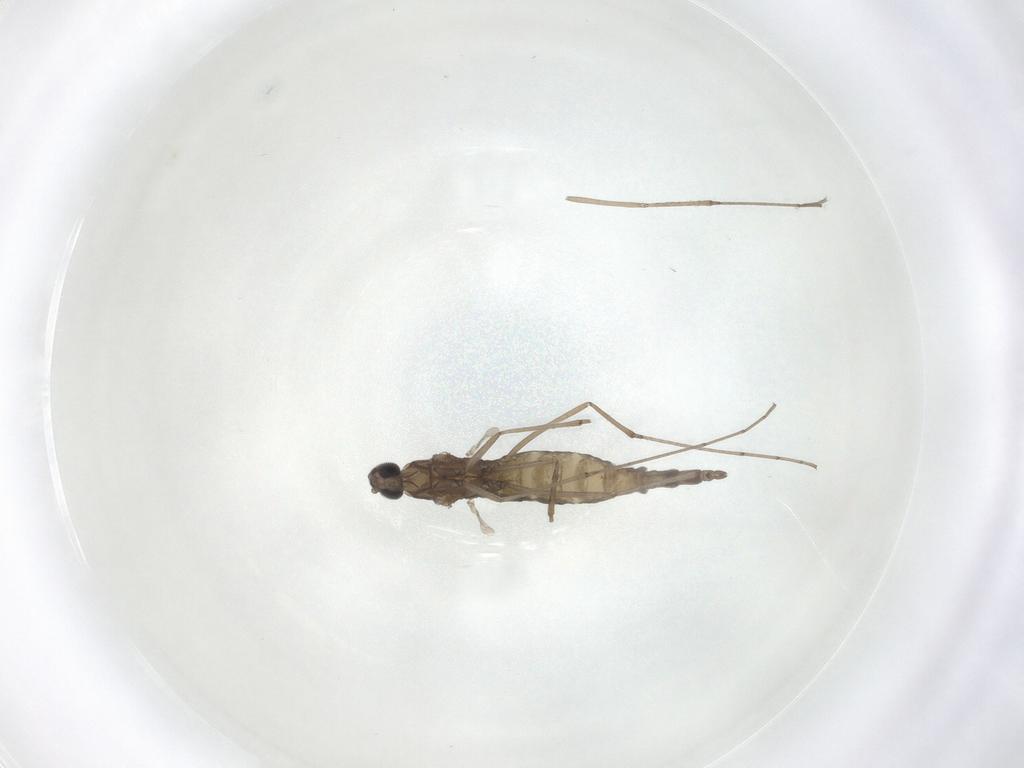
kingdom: Animalia
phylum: Arthropoda
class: Insecta
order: Diptera
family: Cecidomyiidae
